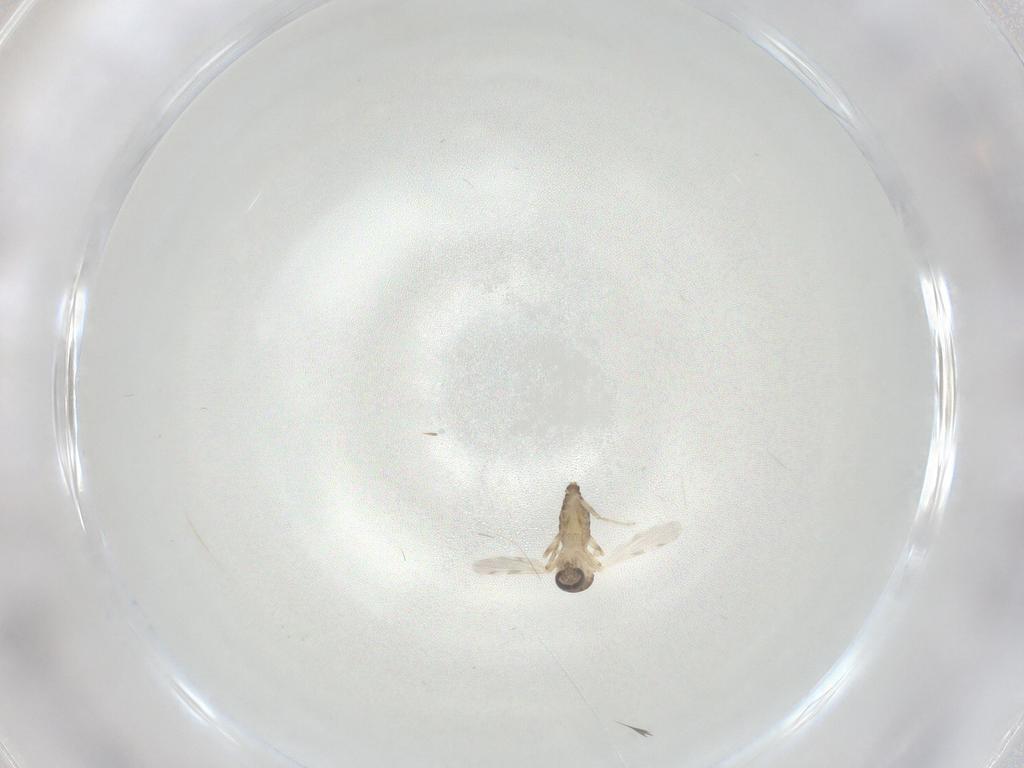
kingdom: Animalia
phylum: Arthropoda
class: Insecta
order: Diptera
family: Ceratopogonidae
